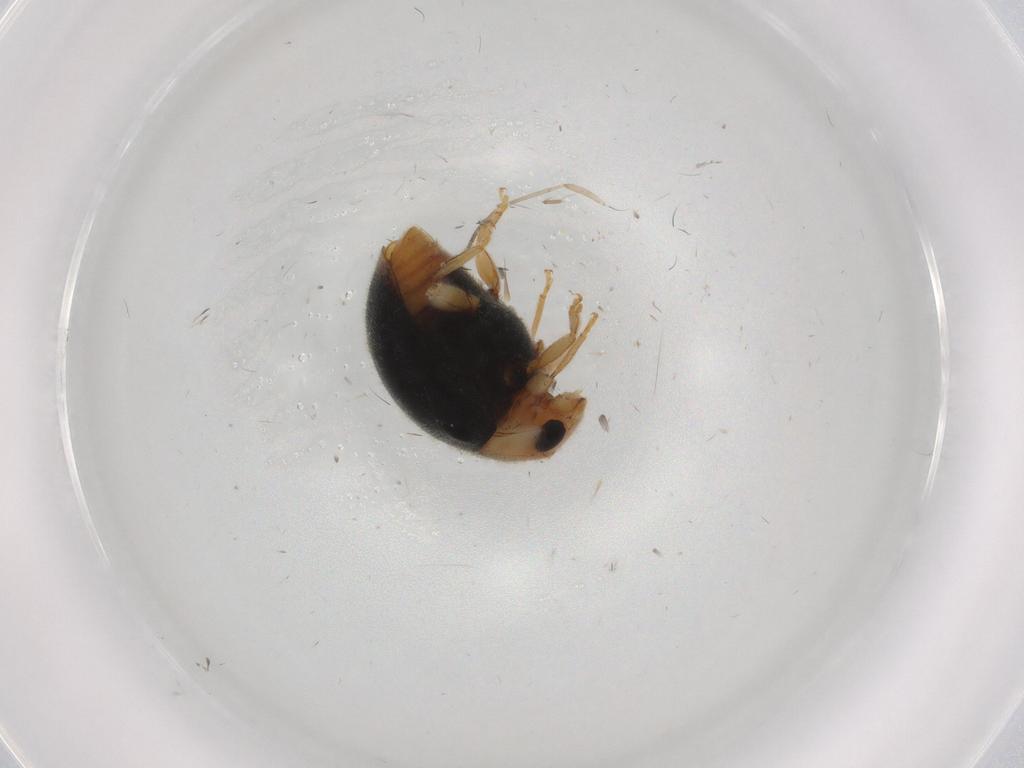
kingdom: Animalia
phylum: Arthropoda
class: Insecta
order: Coleoptera
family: Coccinellidae
